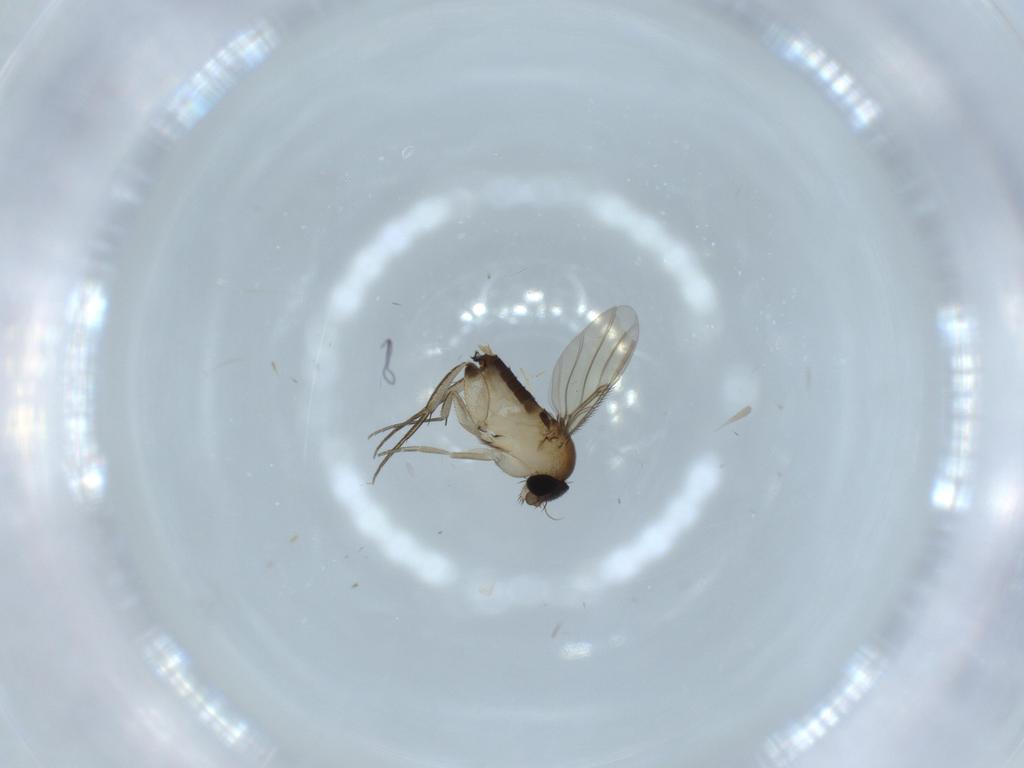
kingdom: Animalia
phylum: Arthropoda
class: Insecta
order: Diptera
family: Phoridae
